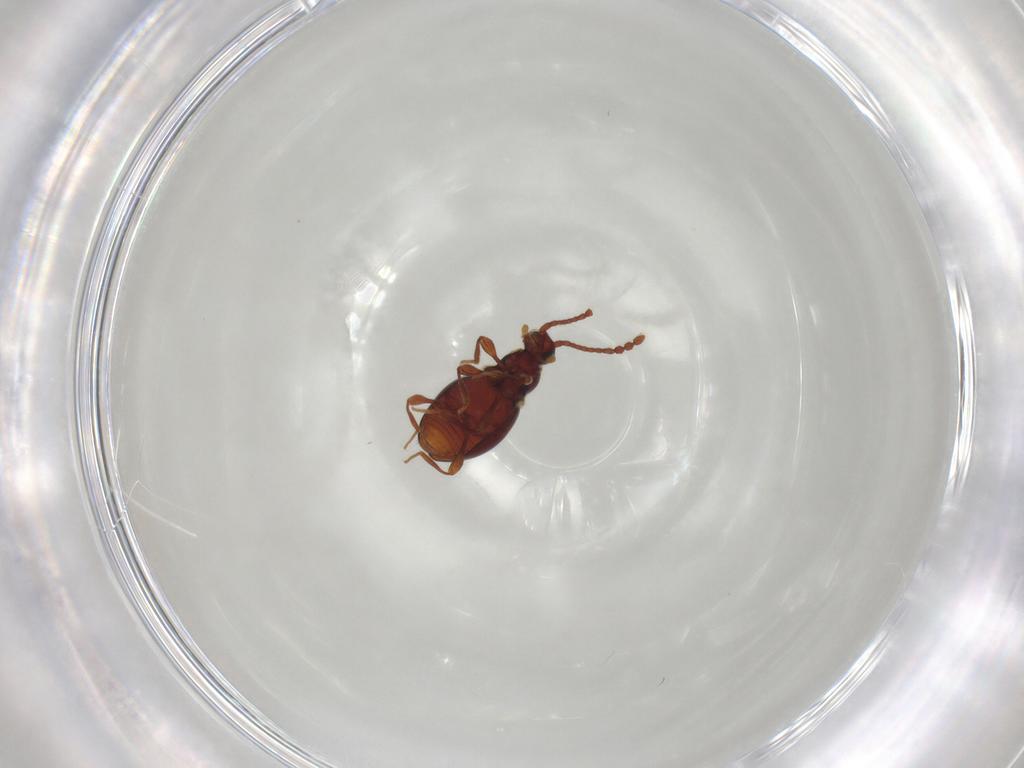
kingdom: Animalia
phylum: Arthropoda
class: Insecta
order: Coleoptera
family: Staphylinidae
